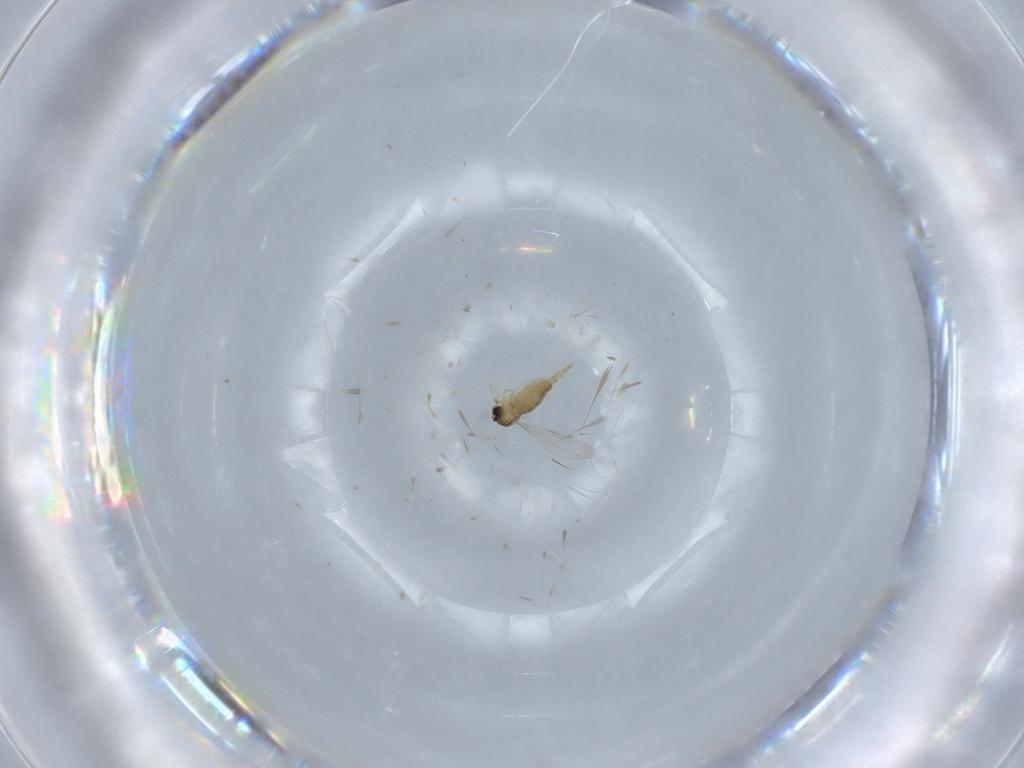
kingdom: Animalia
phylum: Arthropoda
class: Insecta
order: Diptera
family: Cecidomyiidae
